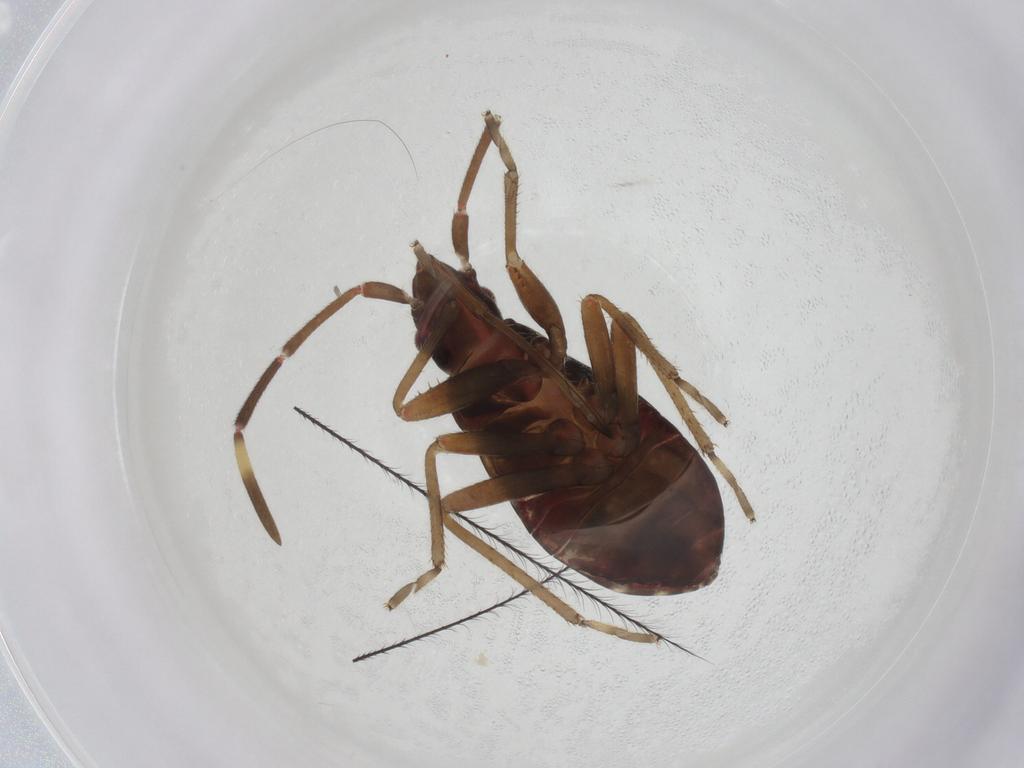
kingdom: Animalia
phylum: Arthropoda
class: Insecta
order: Hemiptera
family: Rhyparochromidae
